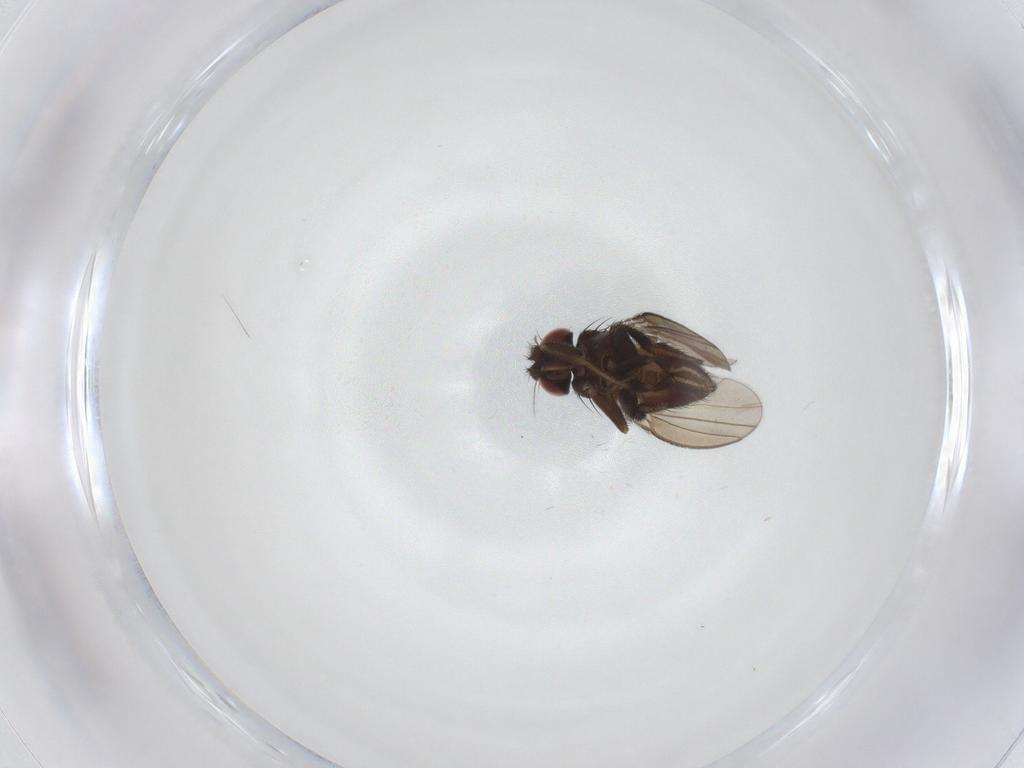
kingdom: Animalia
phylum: Arthropoda
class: Insecta
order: Diptera
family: Milichiidae
